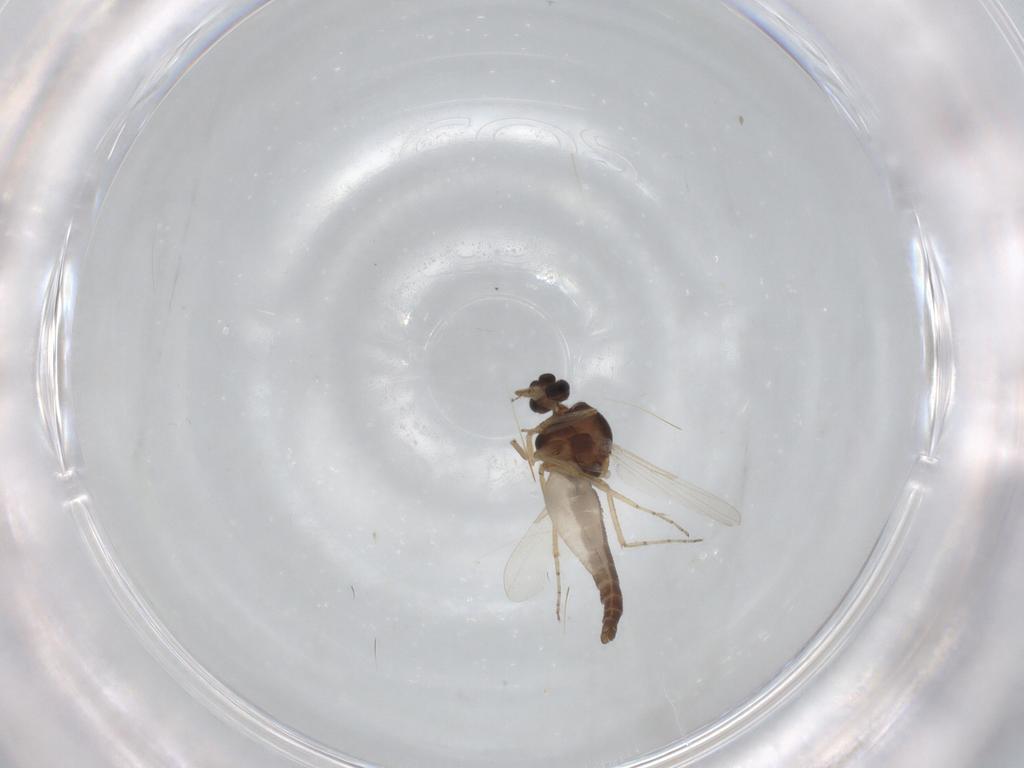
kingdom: Animalia
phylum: Arthropoda
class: Insecta
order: Diptera
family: Ceratopogonidae
